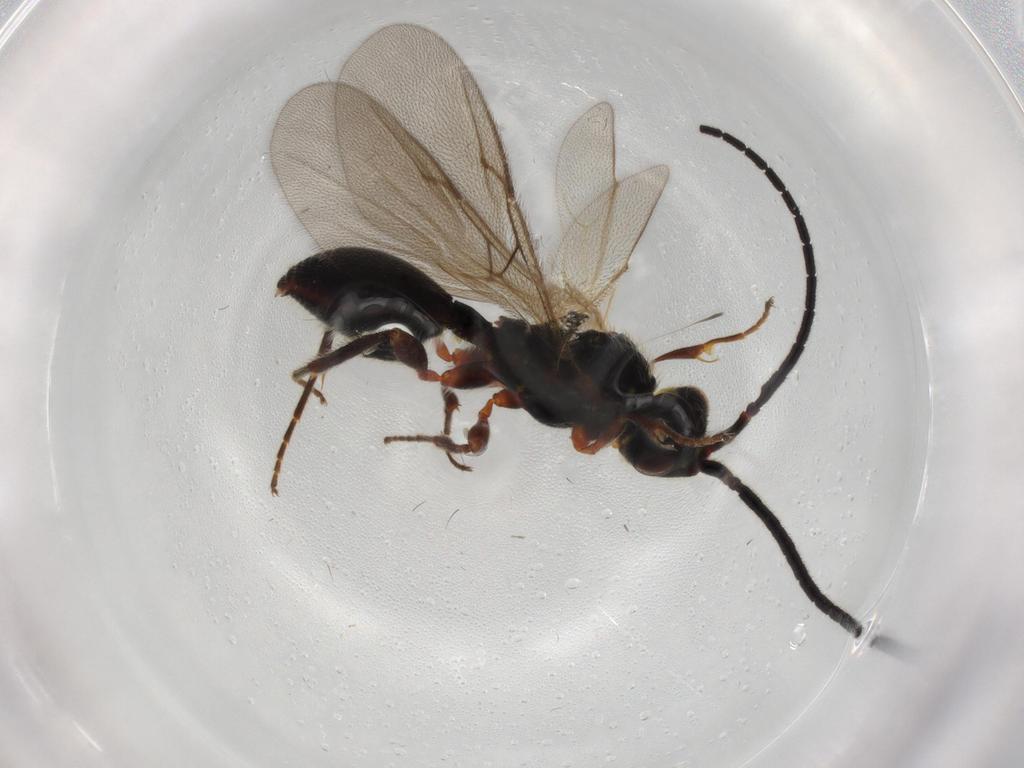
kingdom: Animalia
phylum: Arthropoda
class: Insecta
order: Hymenoptera
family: Diapriidae
